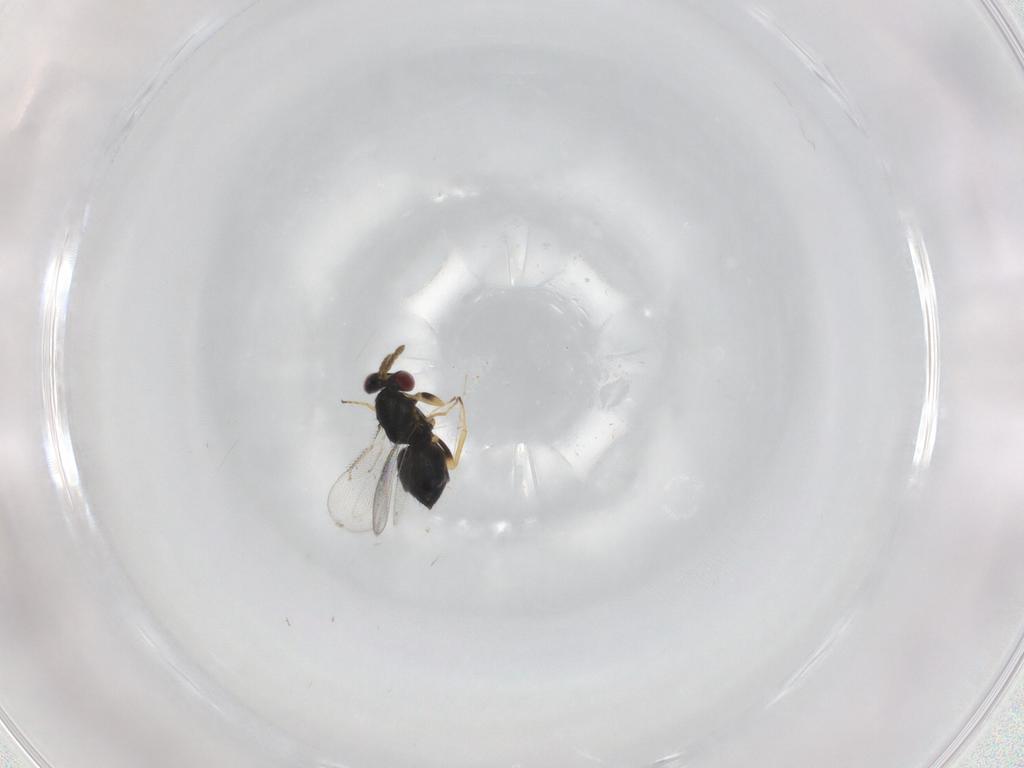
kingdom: Animalia
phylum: Arthropoda
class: Insecta
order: Hymenoptera
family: Eulophidae
